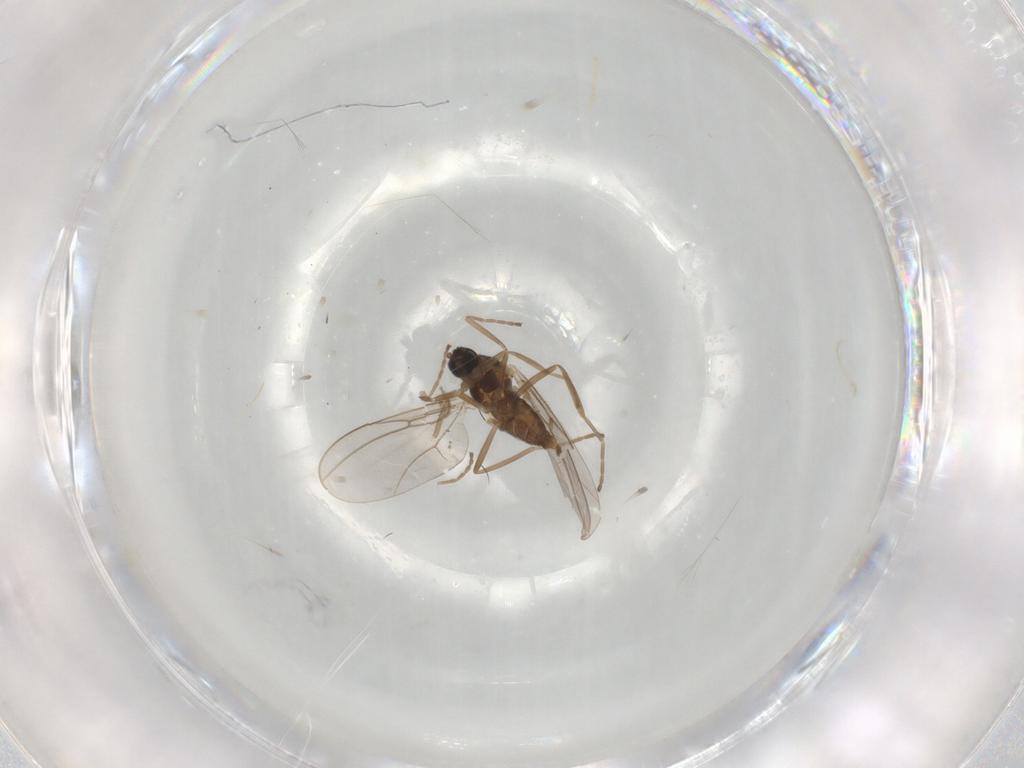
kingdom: Animalia
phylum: Arthropoda
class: Insecta
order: Diptera
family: Cecidomyiidae
